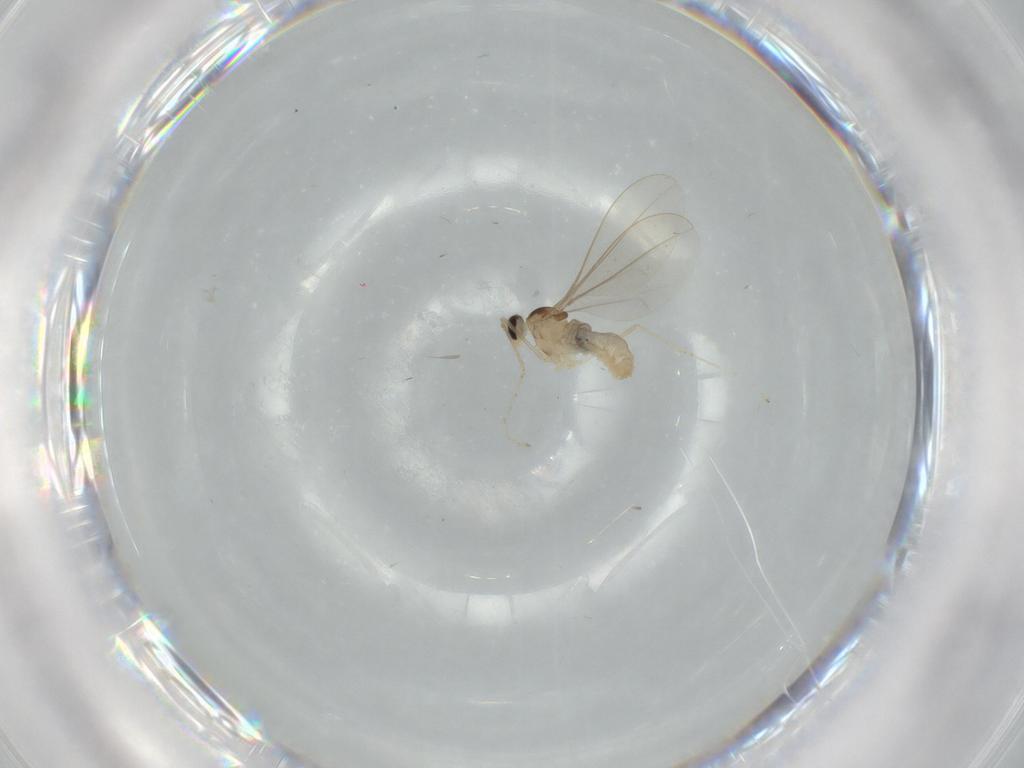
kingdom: Animalia
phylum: Arthropoda
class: Insecta
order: Diptera
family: Cecidomyiidae
